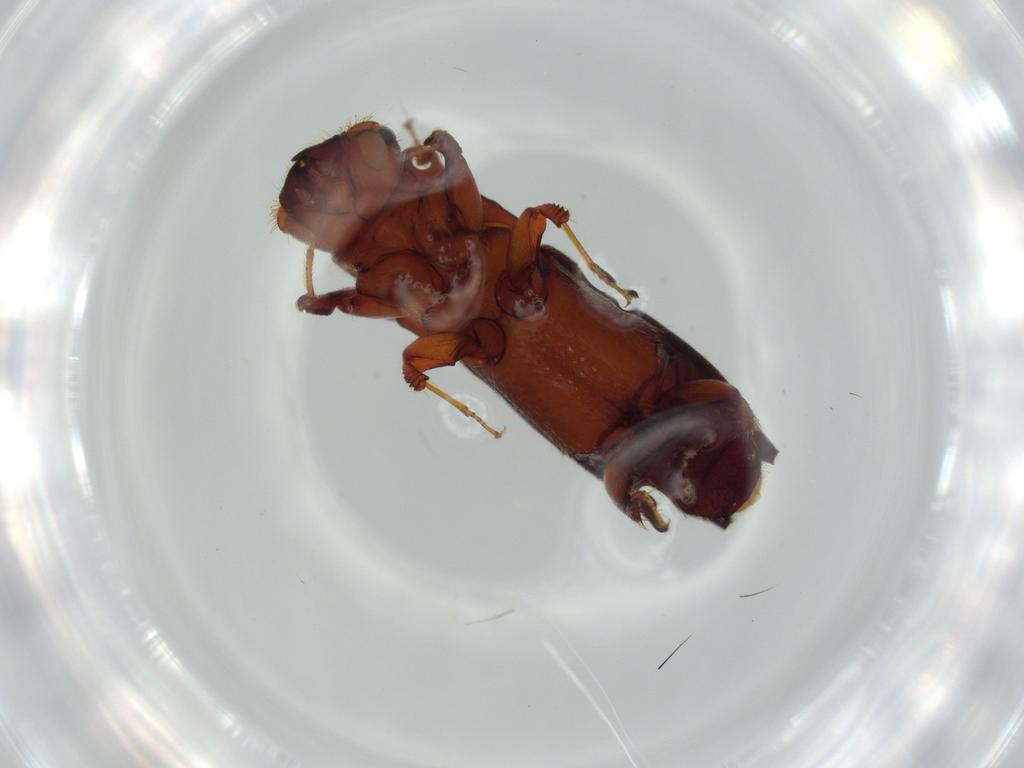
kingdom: Animalia
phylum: Arthropoda
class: Insecta
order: Coleoptera
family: Curculionidae
